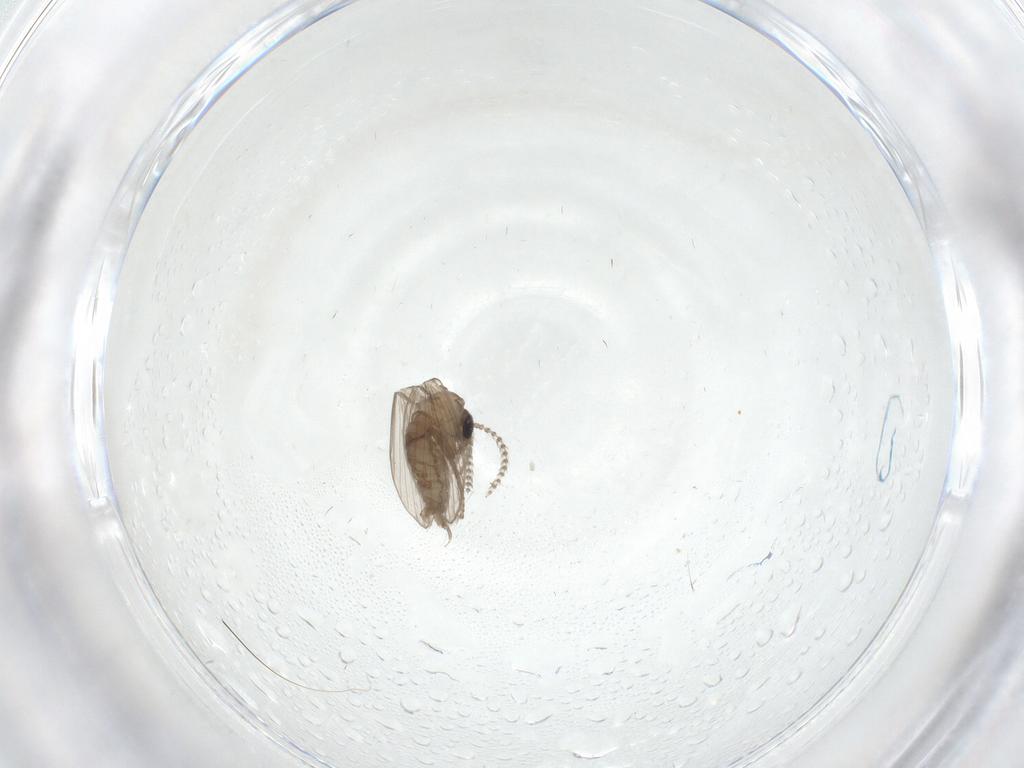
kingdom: Animalia
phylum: Arthropoda
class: Insecta
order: Diptera
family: Psychodidae
